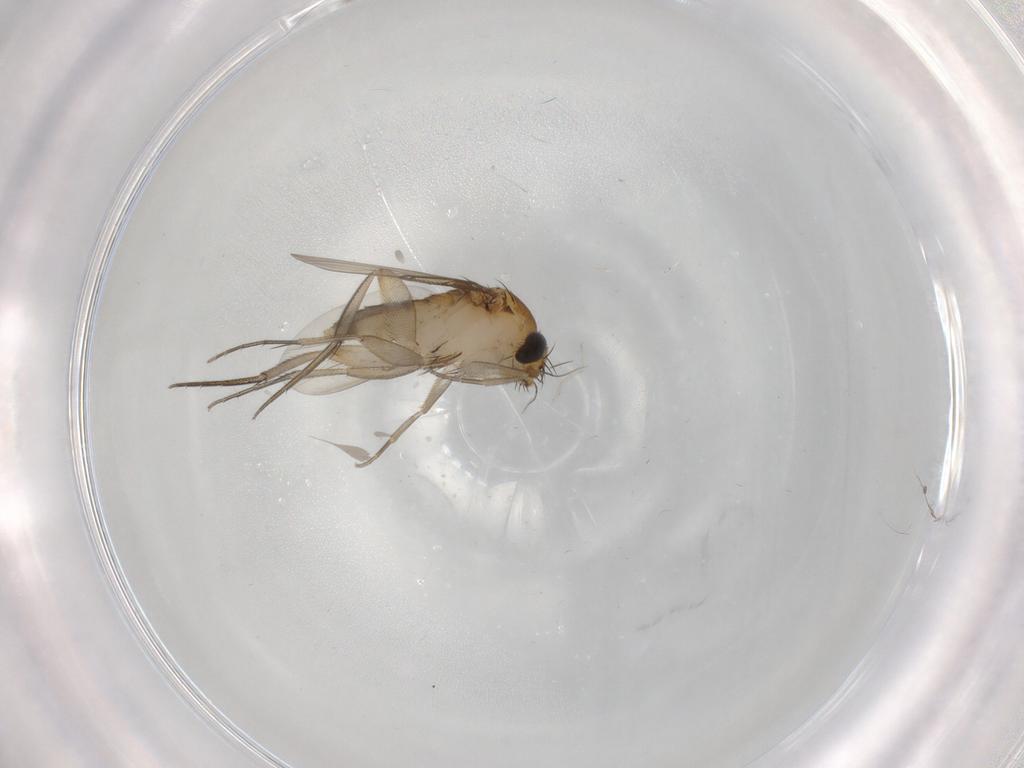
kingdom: Animalia
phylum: Arthropoda
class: Insecta
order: Diptera
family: Phoridae
